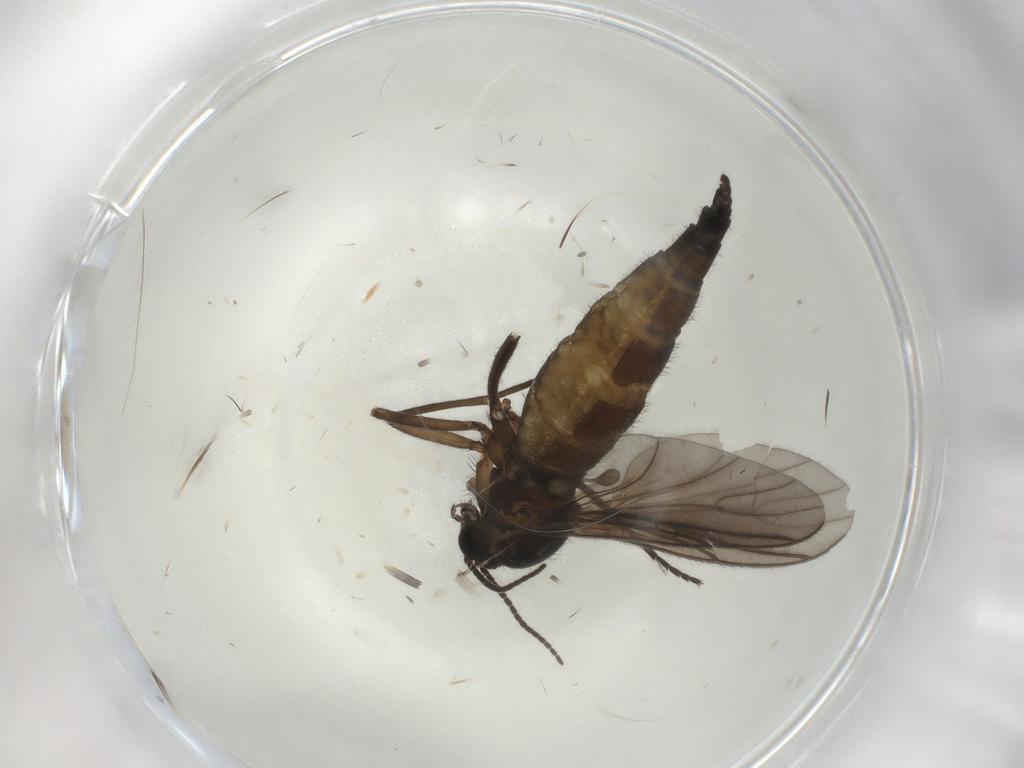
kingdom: Animalia
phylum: Arthropoda
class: Insecta
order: Diptera
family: Sciaridae
